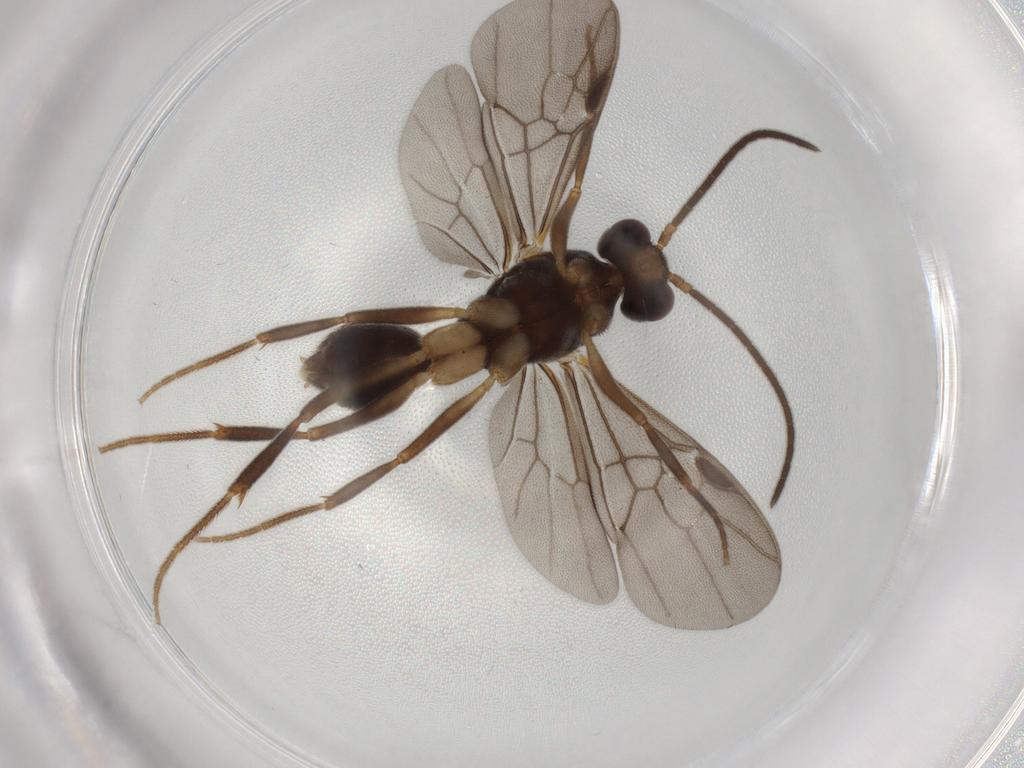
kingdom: Animalia
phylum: Arthropoda
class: Insecta
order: Hymenoptera
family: Formicidae
